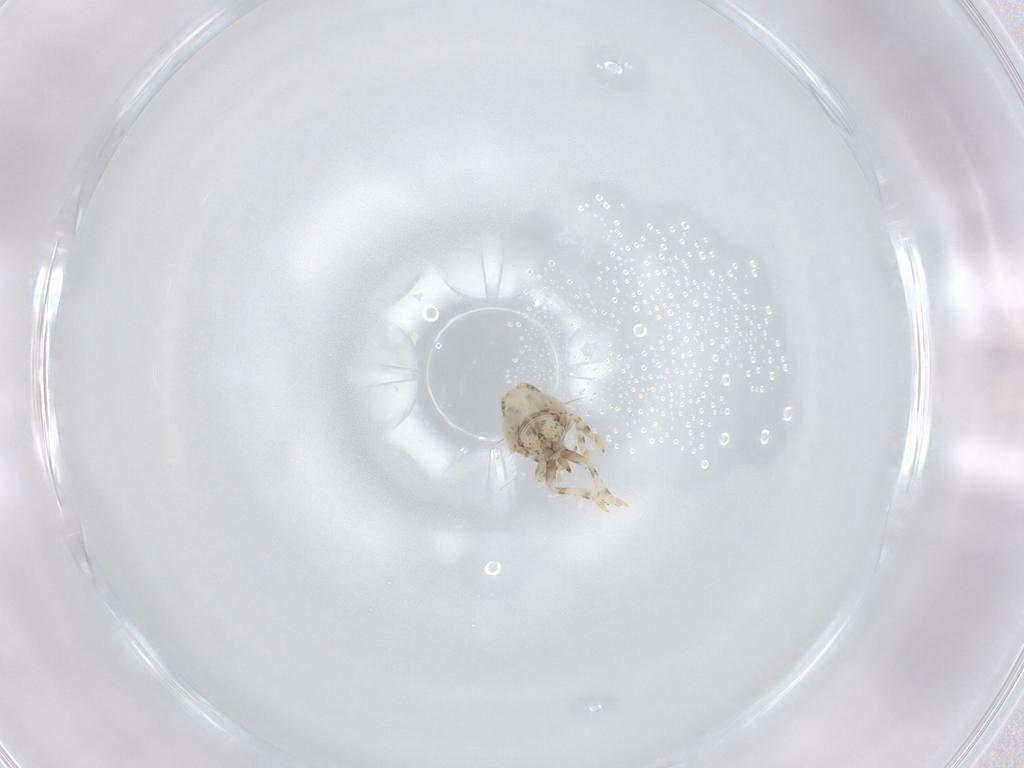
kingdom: Animalia
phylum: Arthropoda
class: Insecta
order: Hemiptera
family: Acanaloniidae
